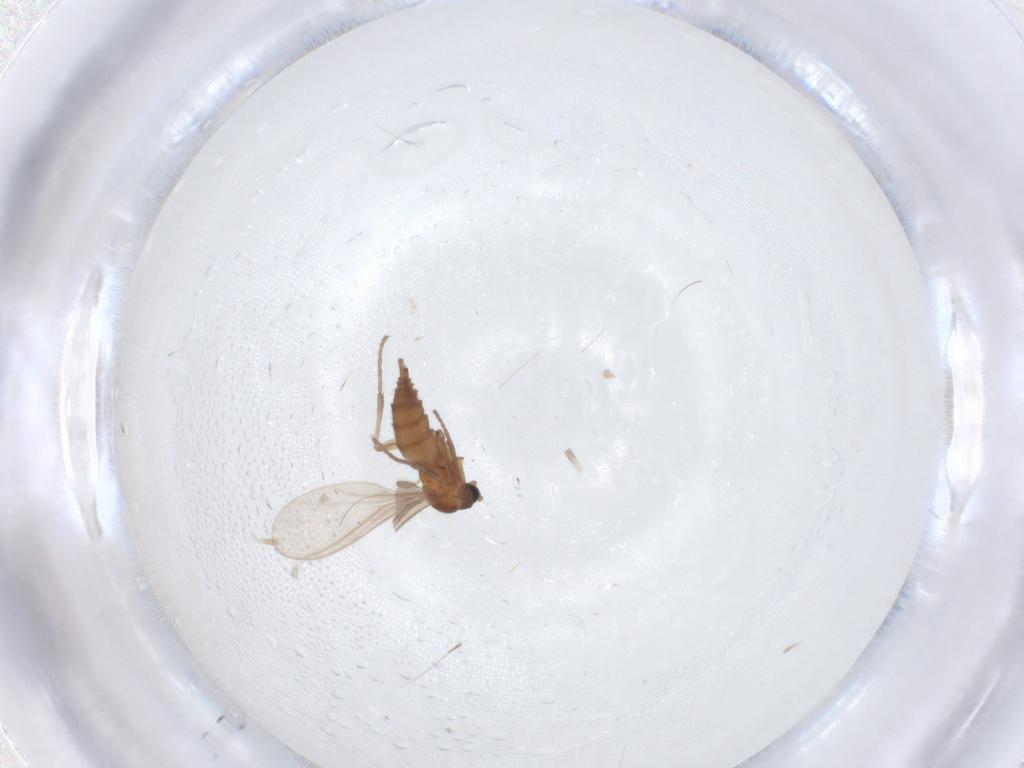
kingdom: Animalia
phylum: Arthropoda
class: Insecta
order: Diptera
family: Sciaridae
